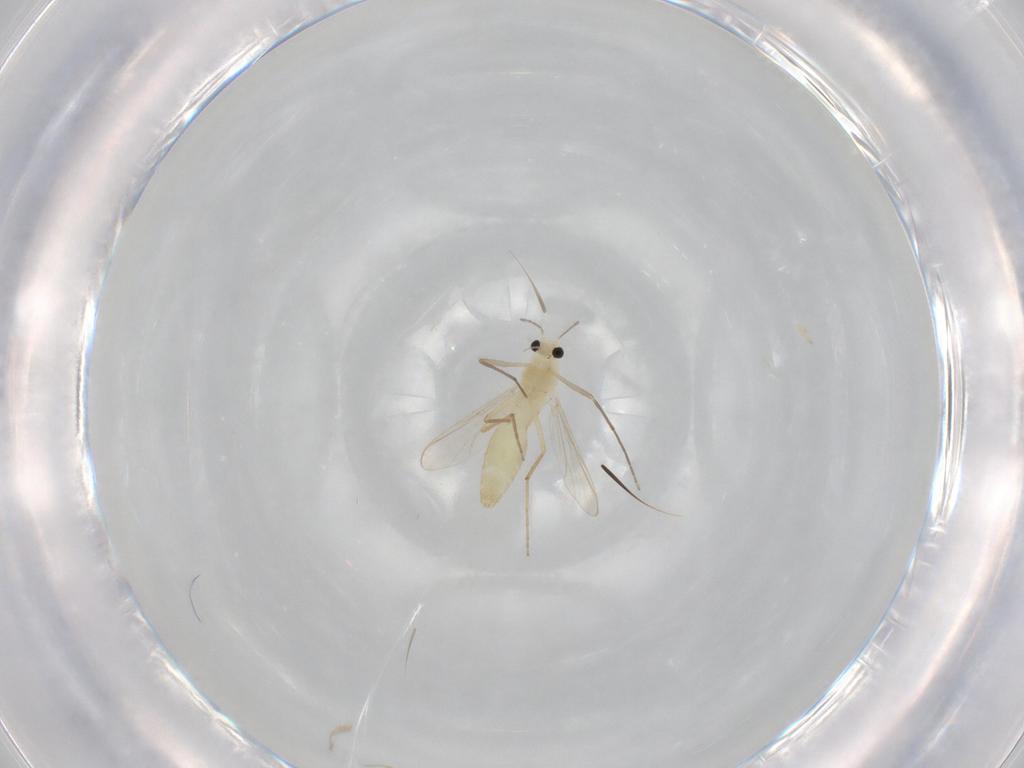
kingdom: Animalia
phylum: Arthropoda
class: Insecta
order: Diptera
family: Chironomidae
